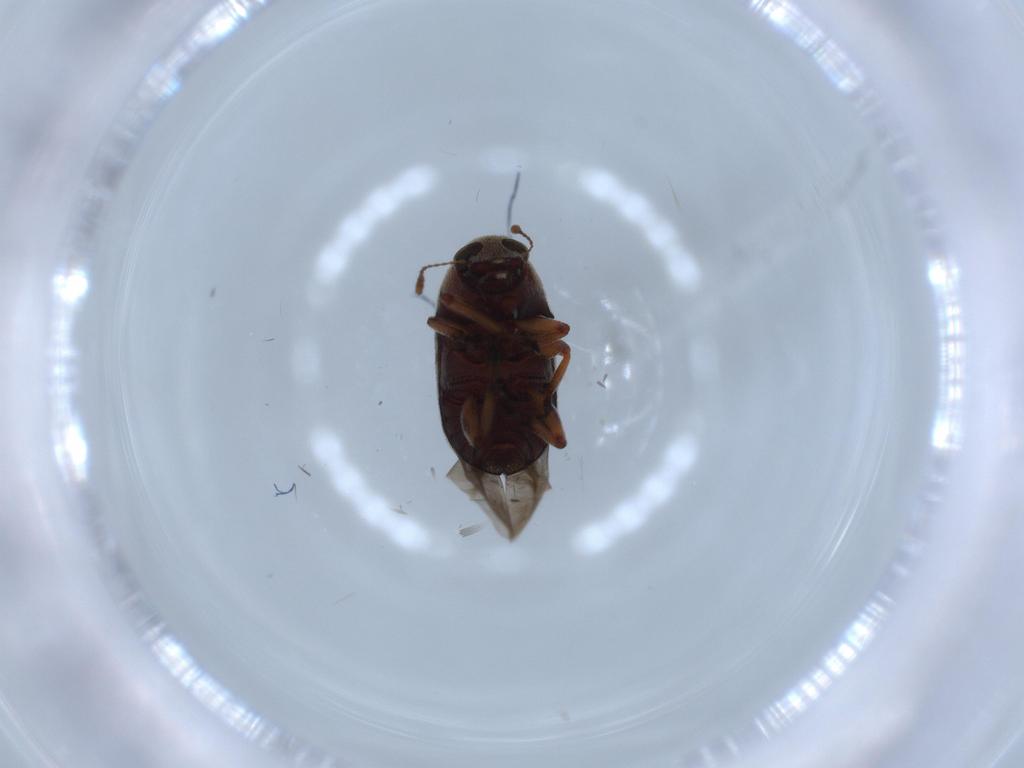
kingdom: Animalia
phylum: Arthropoda
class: Insecta
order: Coleoptera
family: Anthribidae
